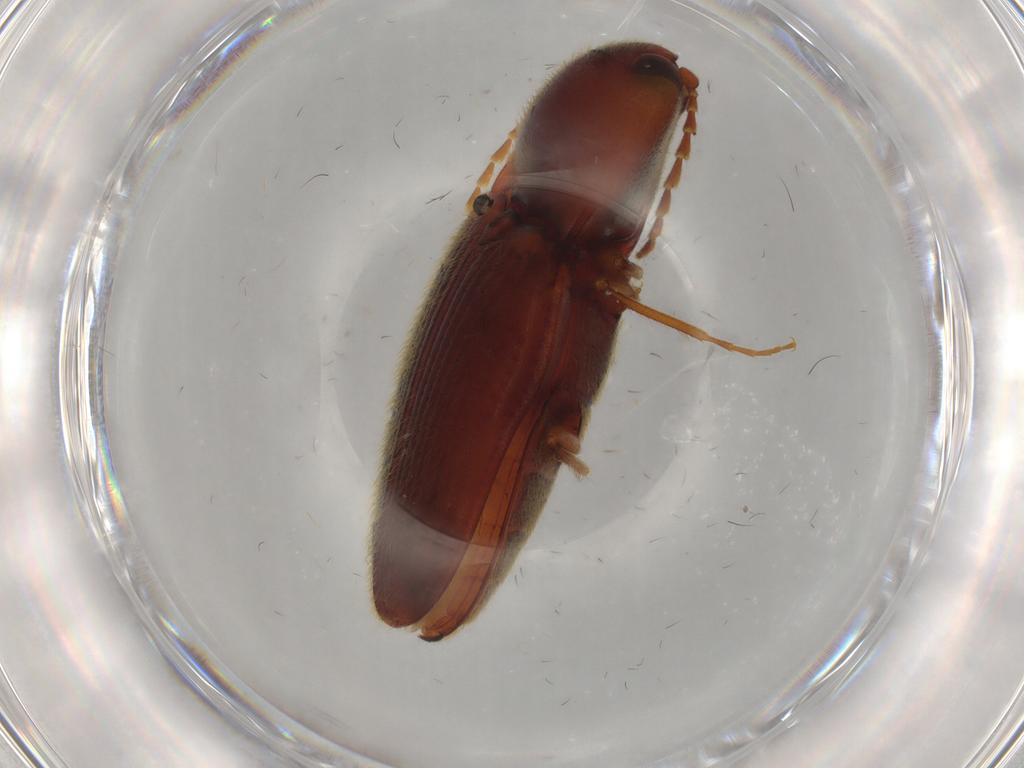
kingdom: Animalia
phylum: Arthropoda
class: Insecta
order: Coleoptera
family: Elateridae
